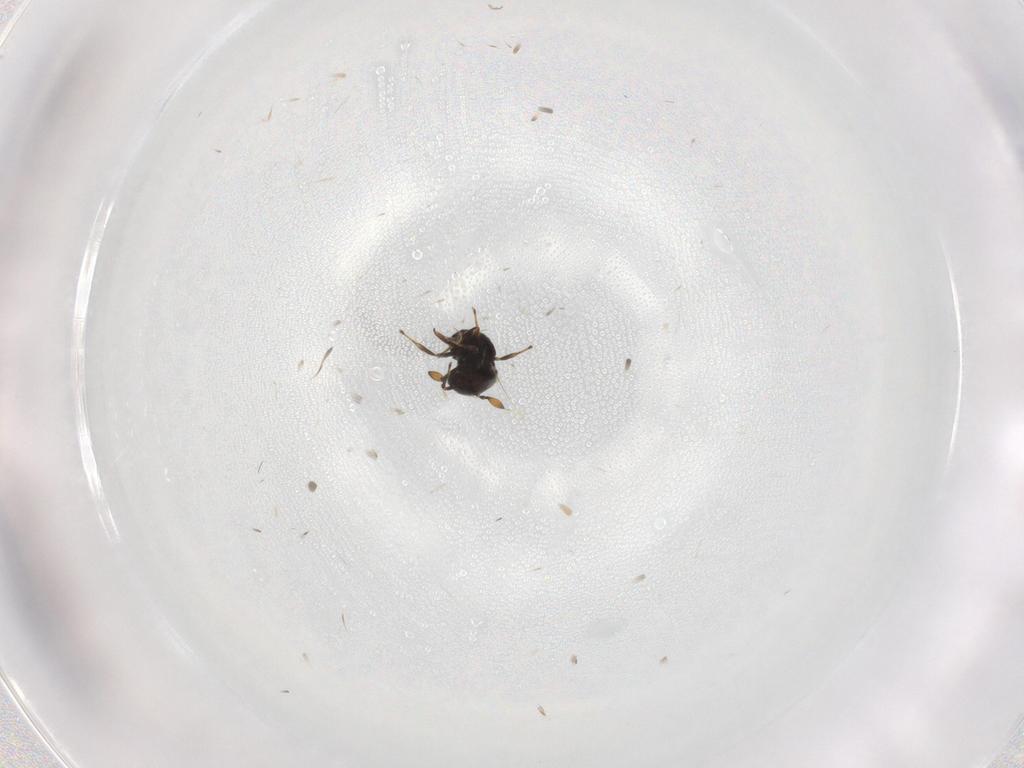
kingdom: Animalia
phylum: Arthropoda
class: Insecta
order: Hymenoptera
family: Scelionidae
